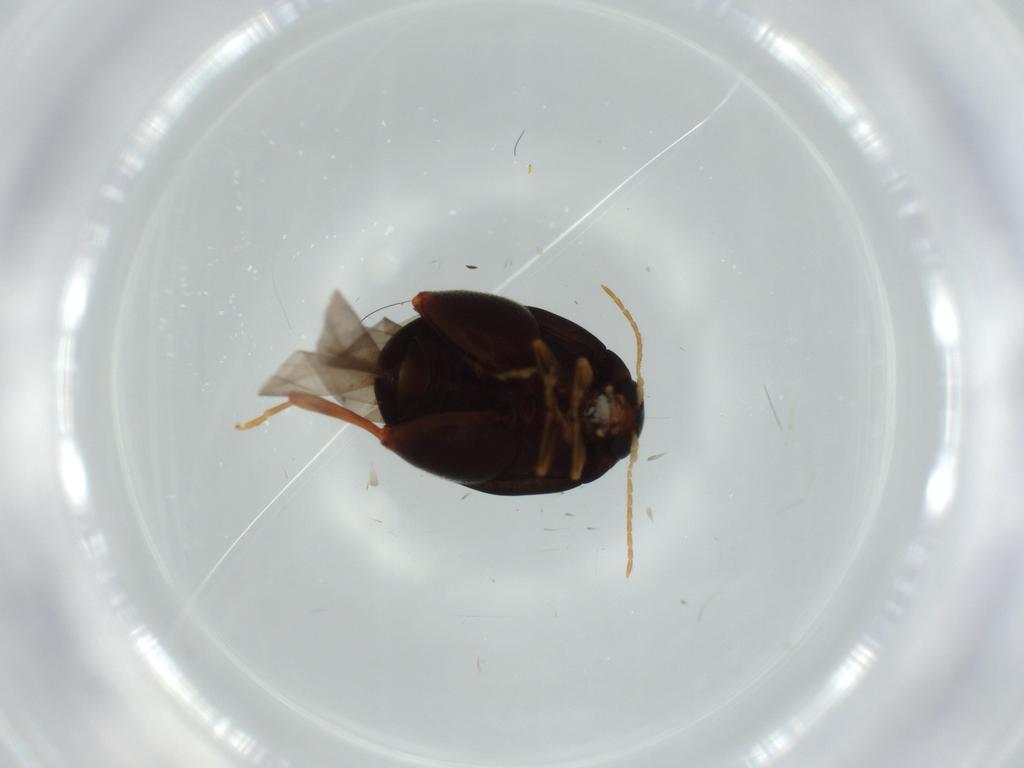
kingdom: Animalia
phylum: Arthropoda
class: Insecta
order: Coleoptera
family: Chrysomelidae
